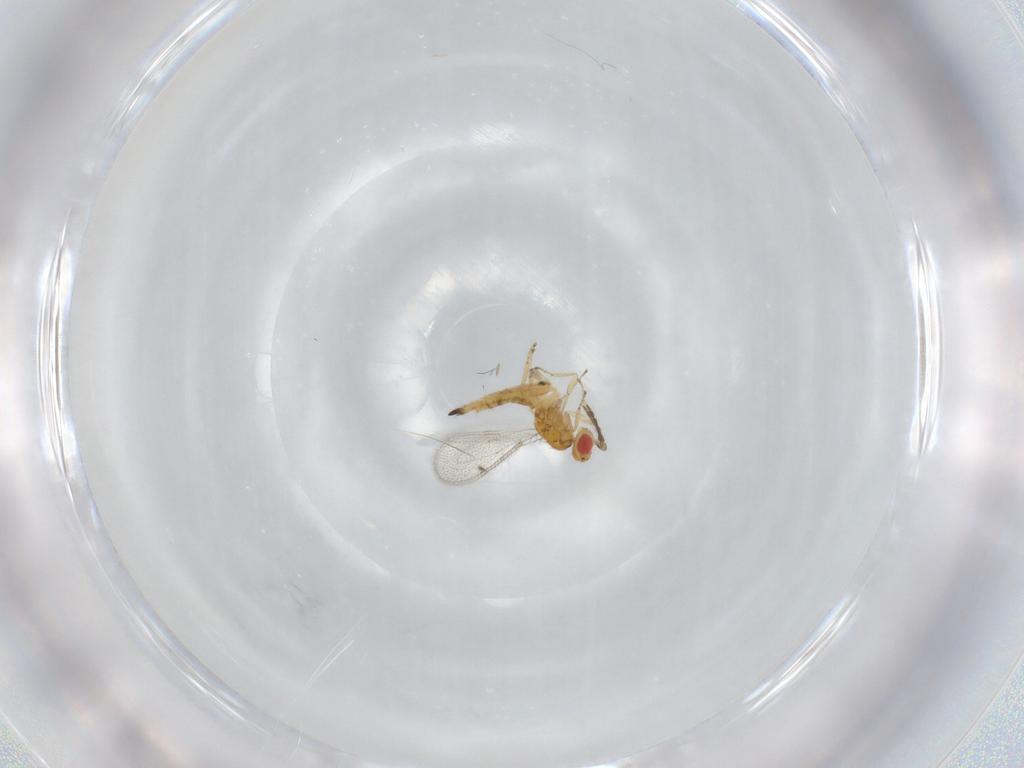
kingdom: Animalia
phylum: Arthropoda
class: Insecta
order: Hymenoptera
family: Eulophidae
